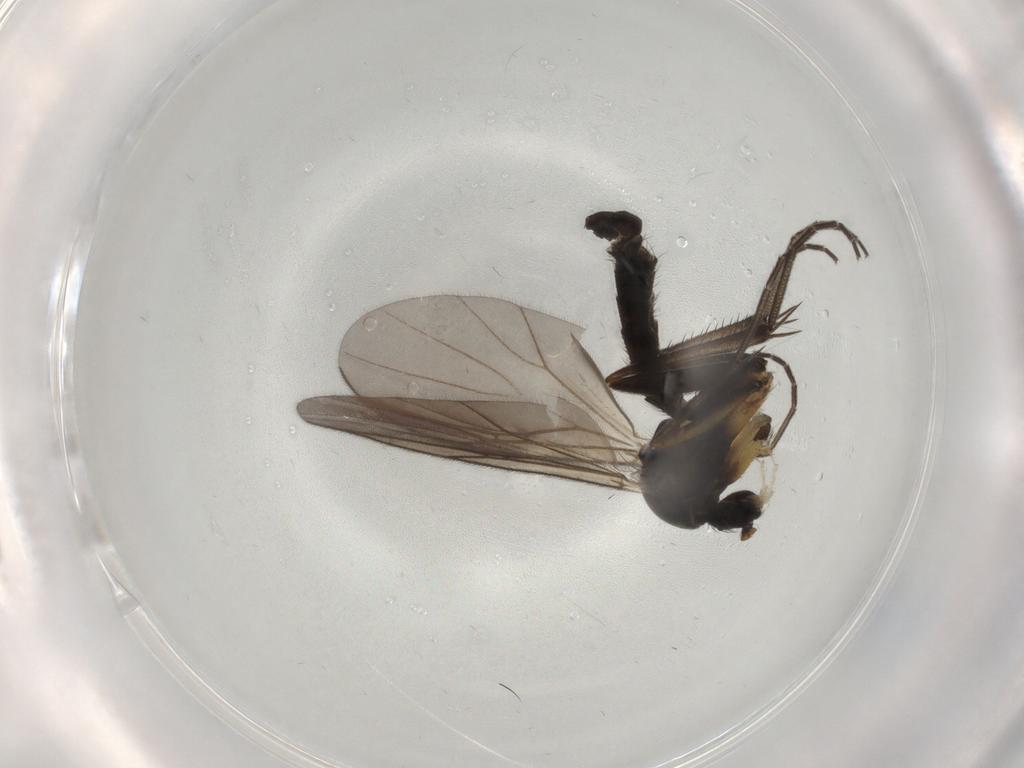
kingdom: Animalia
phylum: Arthropoda
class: Insecta
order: Diptera
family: Mycetophilidae
